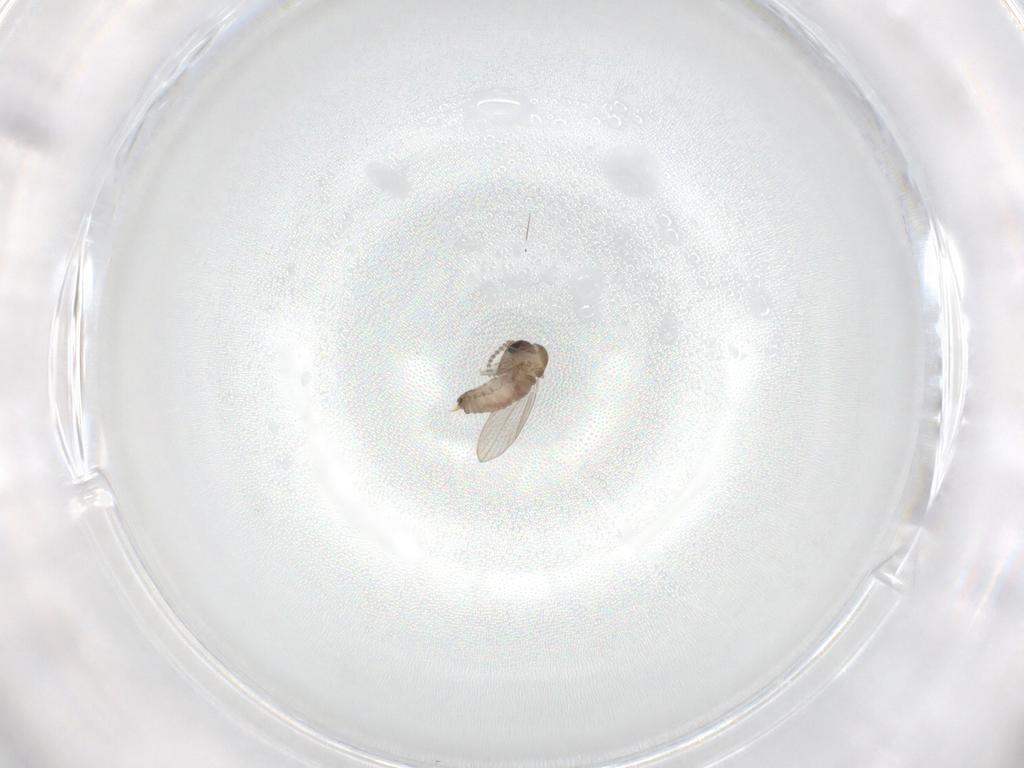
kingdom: Animalia
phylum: Arthropoda
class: Insecta
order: Diptera
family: Psychodidae
